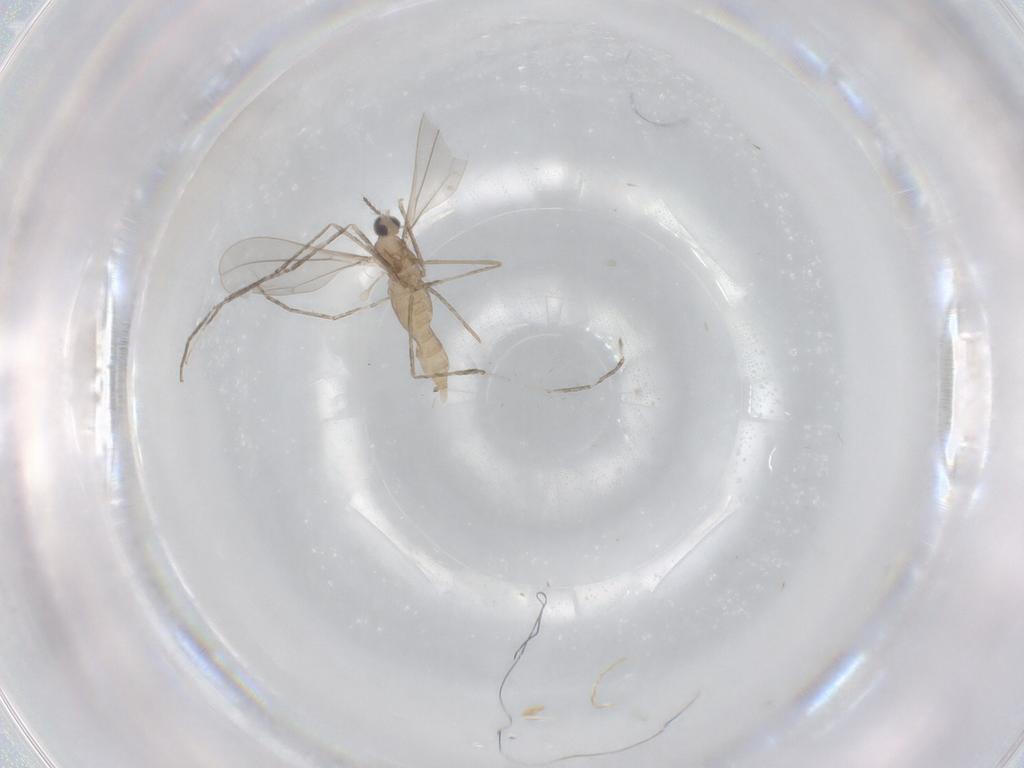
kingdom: Animalia
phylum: Arthropoda
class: Insecta
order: Diptera
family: Cecidomyiidae
